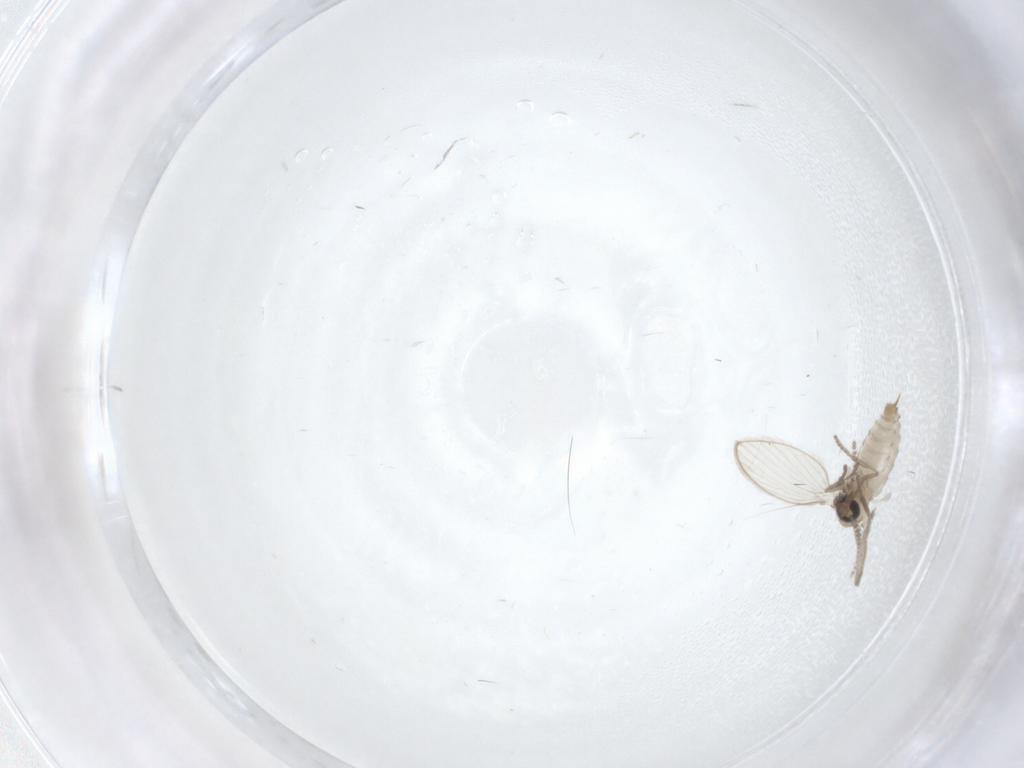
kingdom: Animalia
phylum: Arthropoda
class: Insecta
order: Diptera
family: Psychodidae
